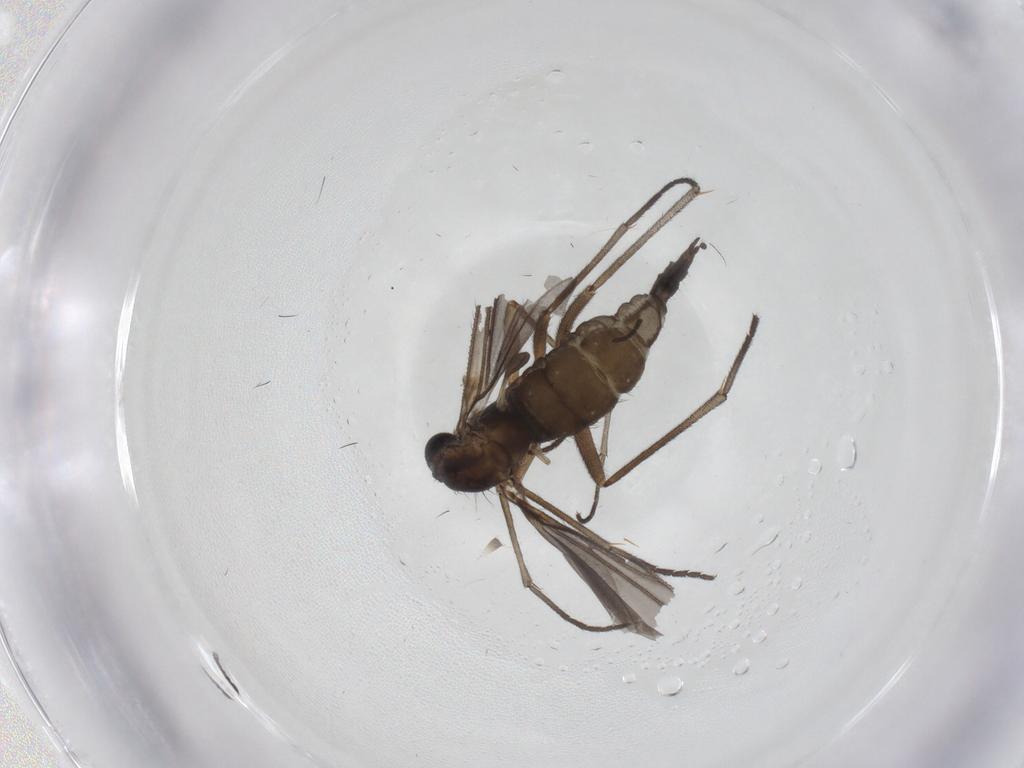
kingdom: Animalia
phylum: Arthropoda
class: Insecta
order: Diptera
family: Sciaridae
